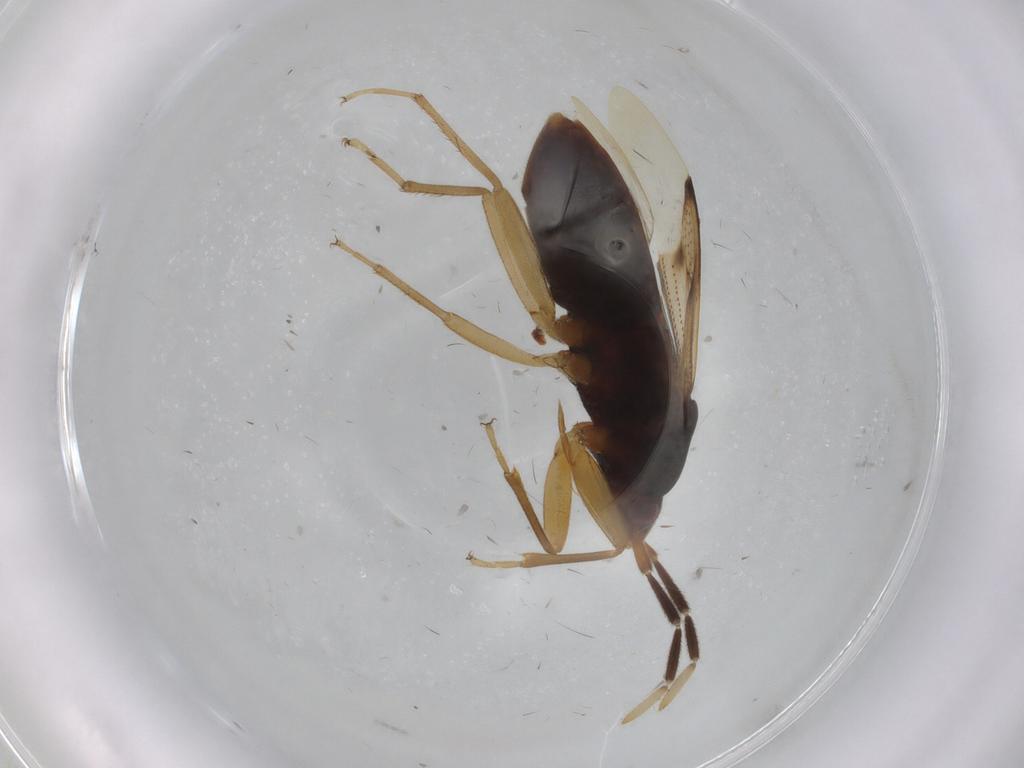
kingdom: Animalia
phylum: Arthropoda
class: Insecta
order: Hemiptera
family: Rhyparochromidae
